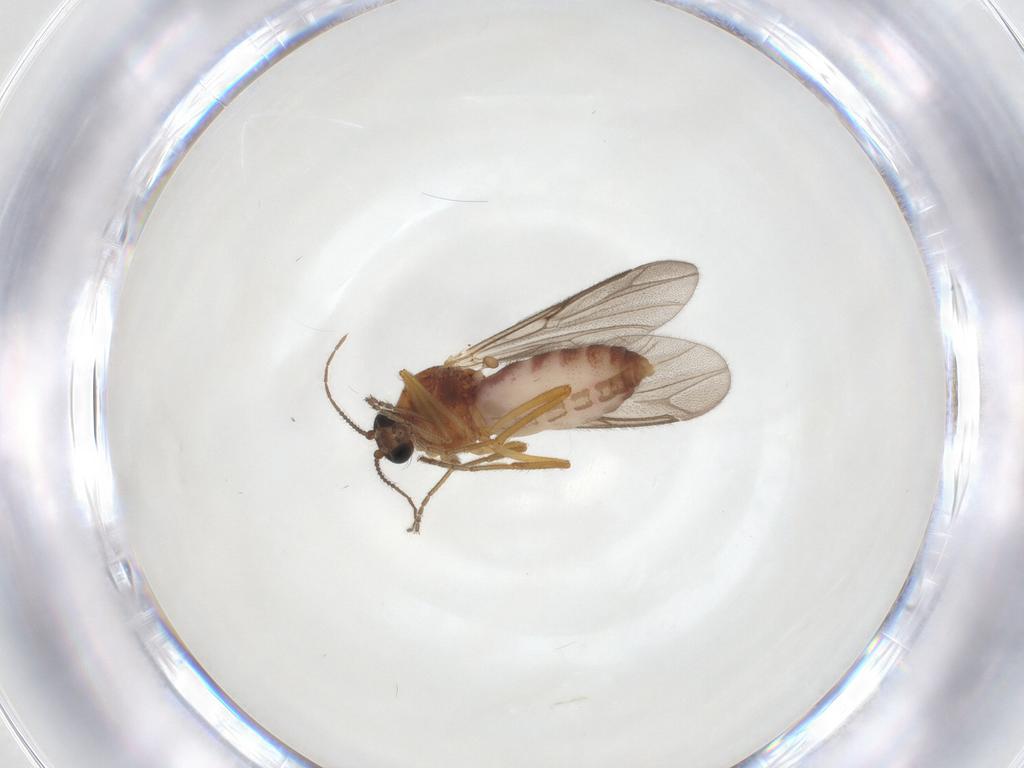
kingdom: Animalia
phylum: Arthropoda
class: Insecta
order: Diptera
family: Ceratopogonidae
